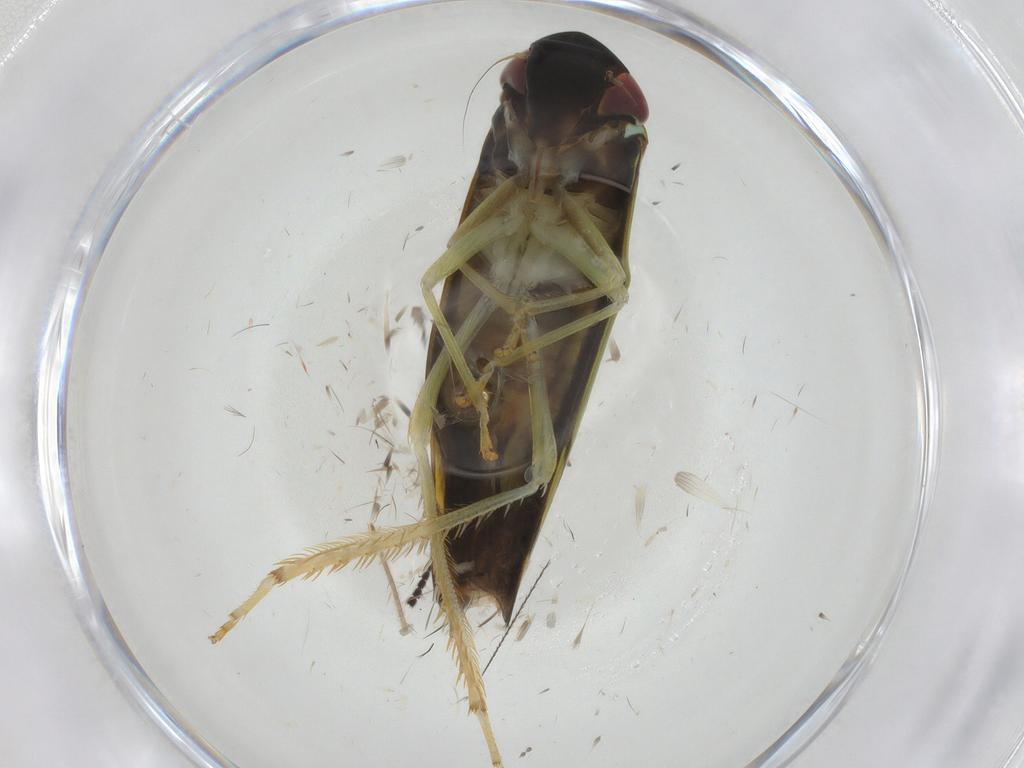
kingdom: Animalia
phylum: Arthropoda
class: Insecta
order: Hemiptera
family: Cicadellidae
